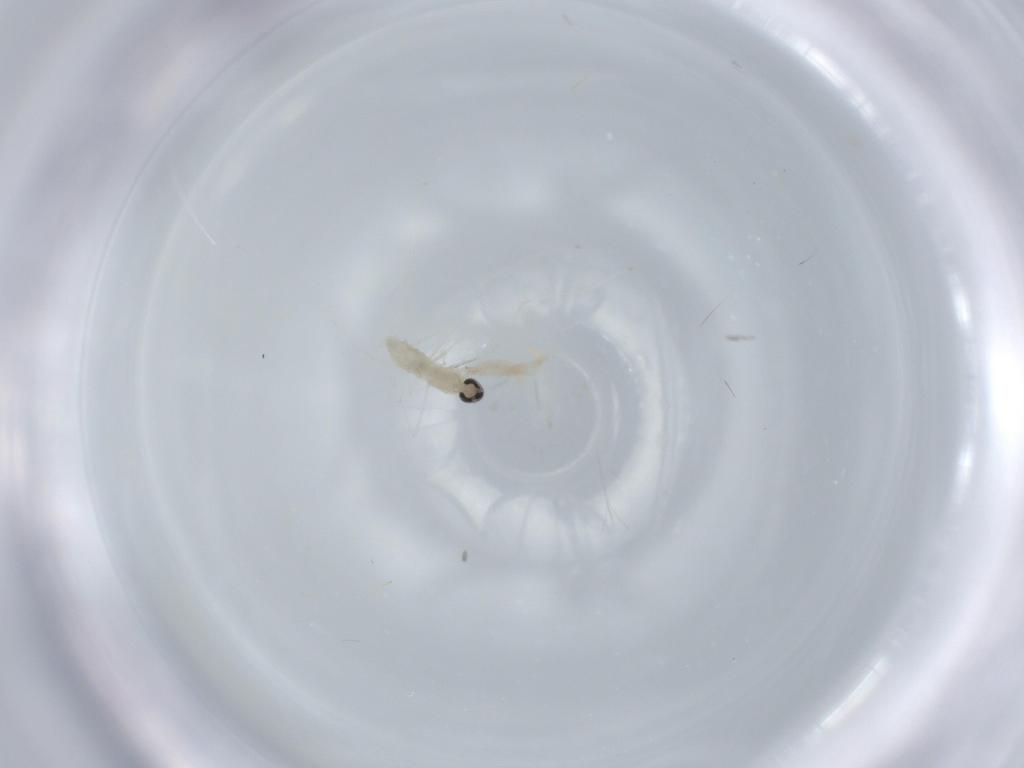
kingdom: Animalia
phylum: Arthropoda
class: Insecta
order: Diptera
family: Cecidomyiidae
